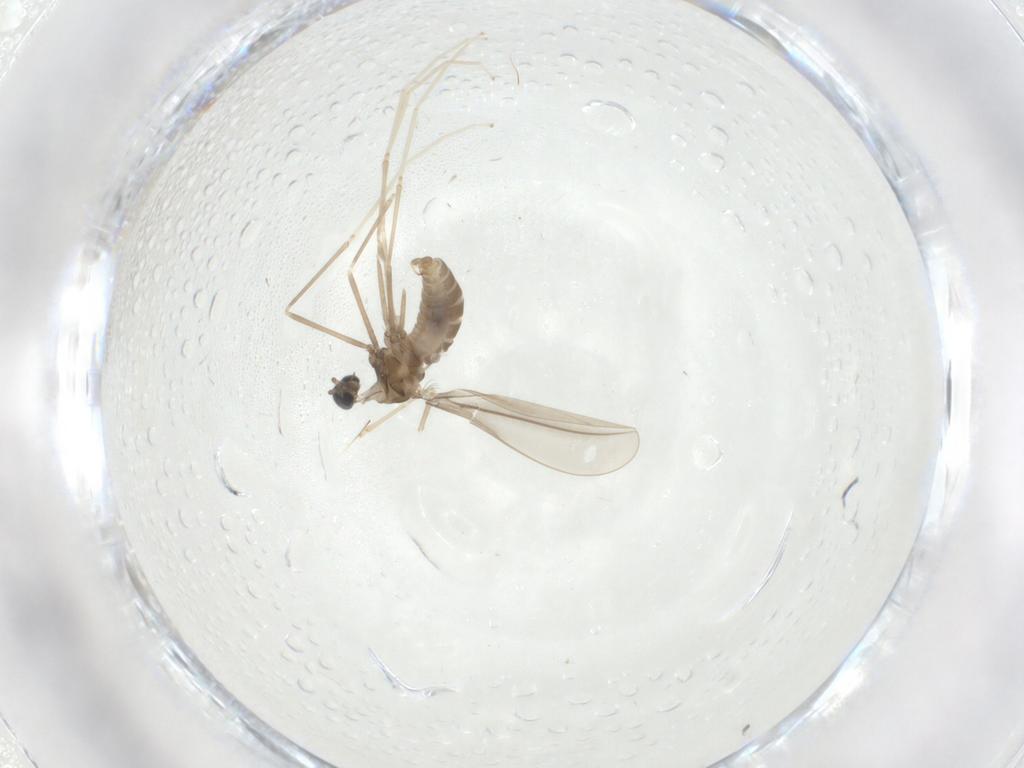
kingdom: Animalia
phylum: Arthropoda
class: Insecta
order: Diptera
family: Cecidomyiidae
